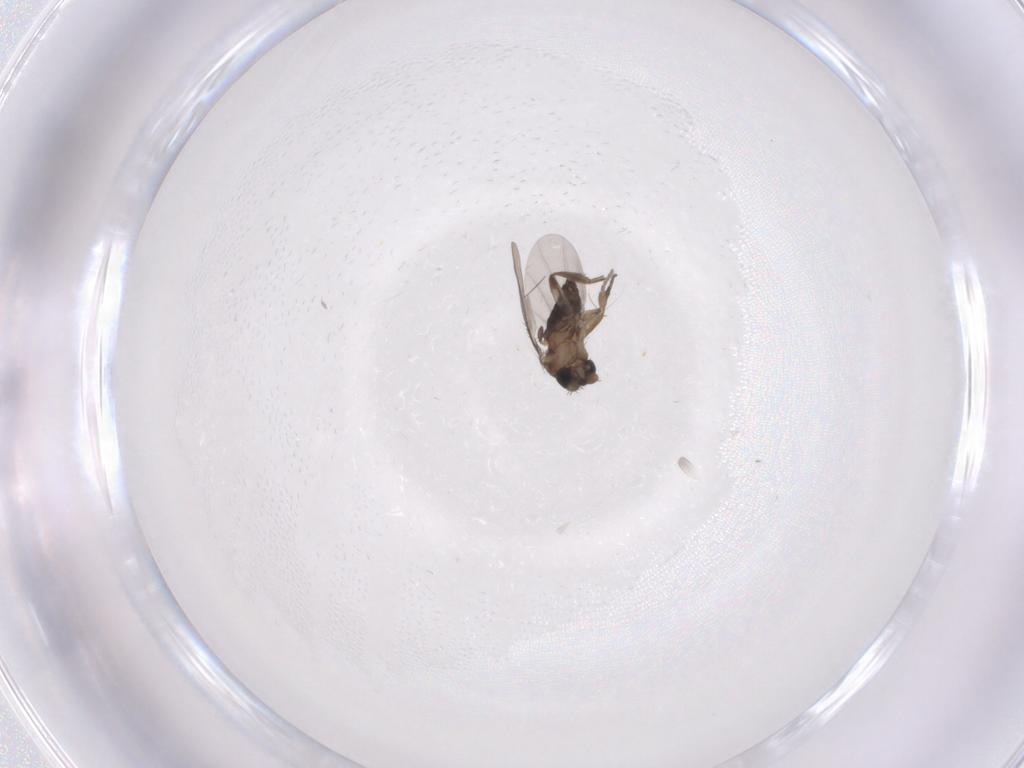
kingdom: Animalia
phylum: Arthropoda
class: Insecta
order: Diptera
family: Phoridae
